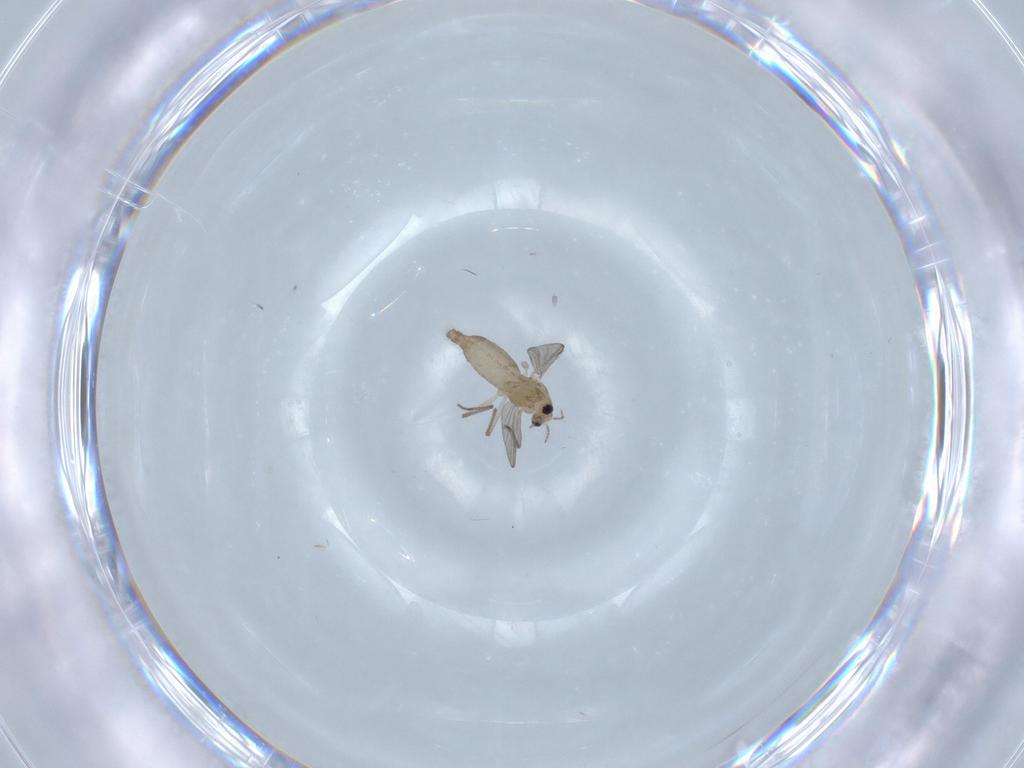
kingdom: Animalia
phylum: Arthropoda
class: Insecta
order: Diptera
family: Chironomidae
